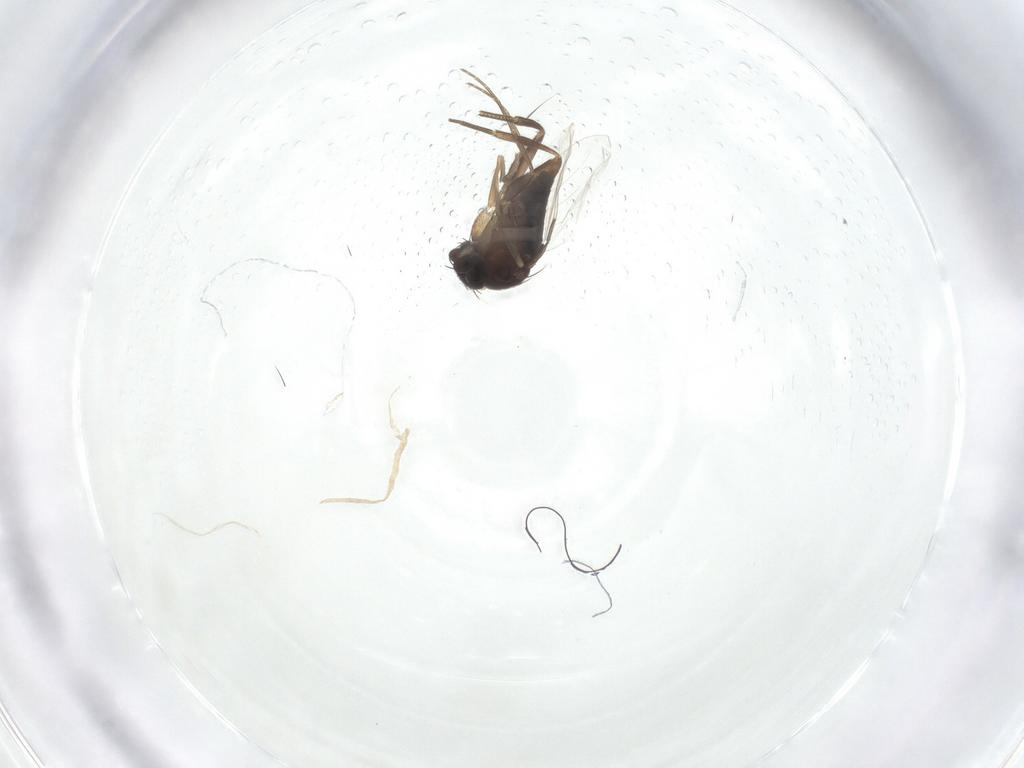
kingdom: Animalia
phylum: Arthropoda
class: Insecta
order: Diptera
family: Phoridae
